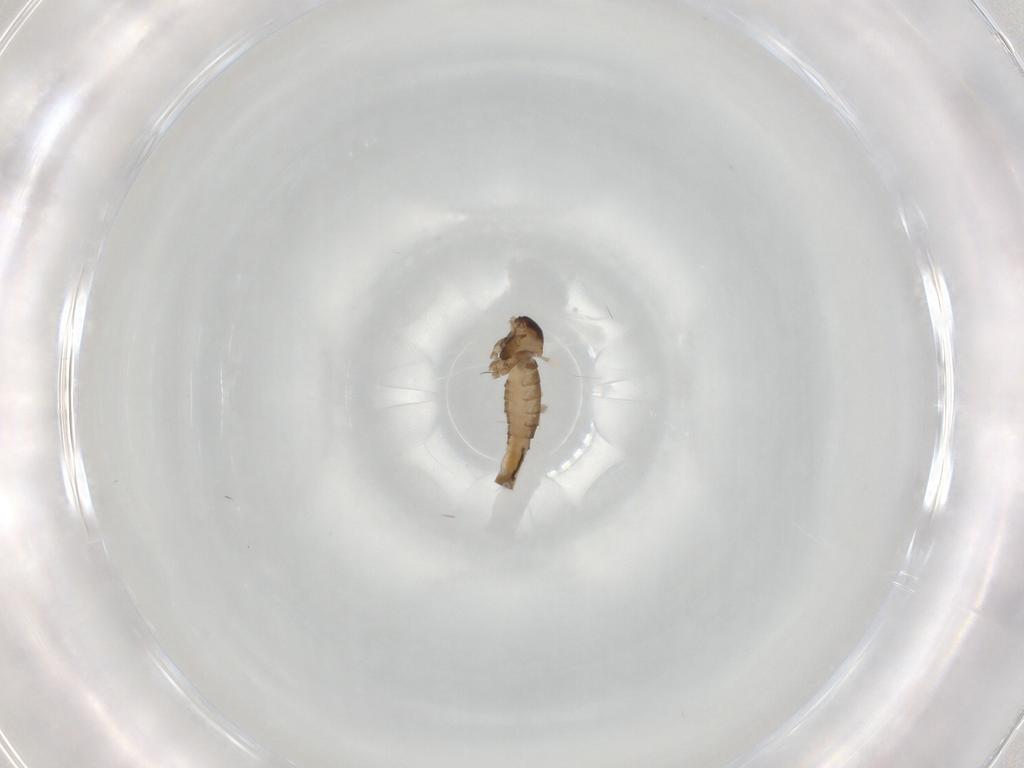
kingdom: Animalia
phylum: Arthropoda
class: Insecta
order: Diptera
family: Cecidomyiidae
